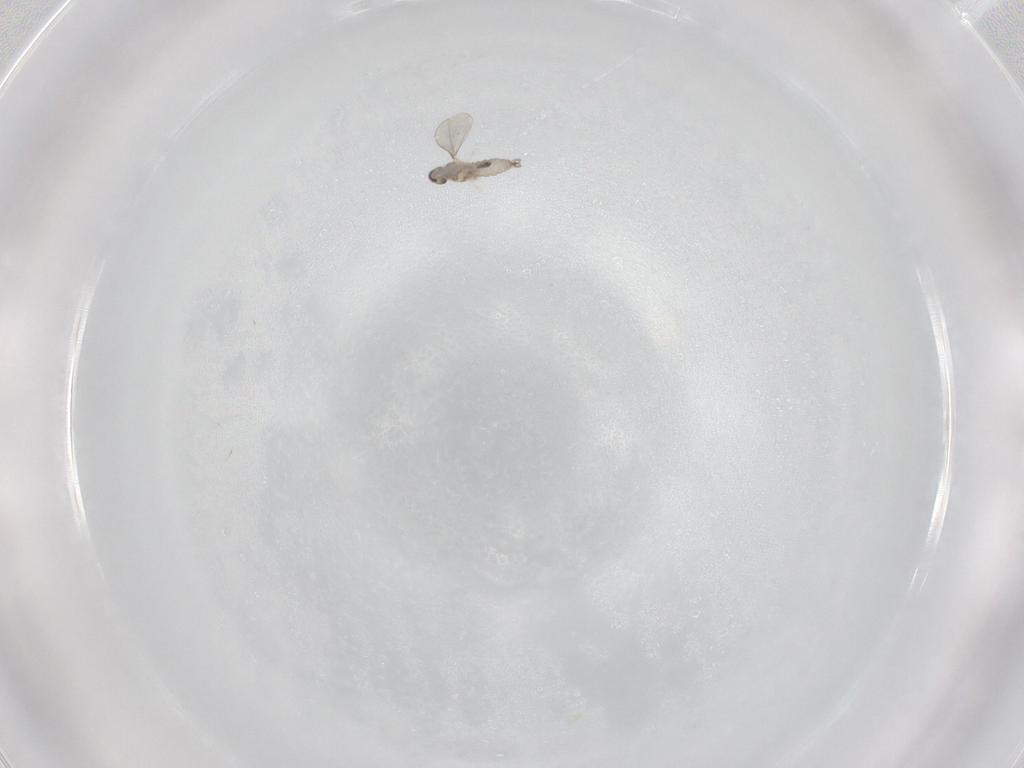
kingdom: Animalia
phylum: Arthropoda
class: Insecta
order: Diptera
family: Cecidomyiidae
